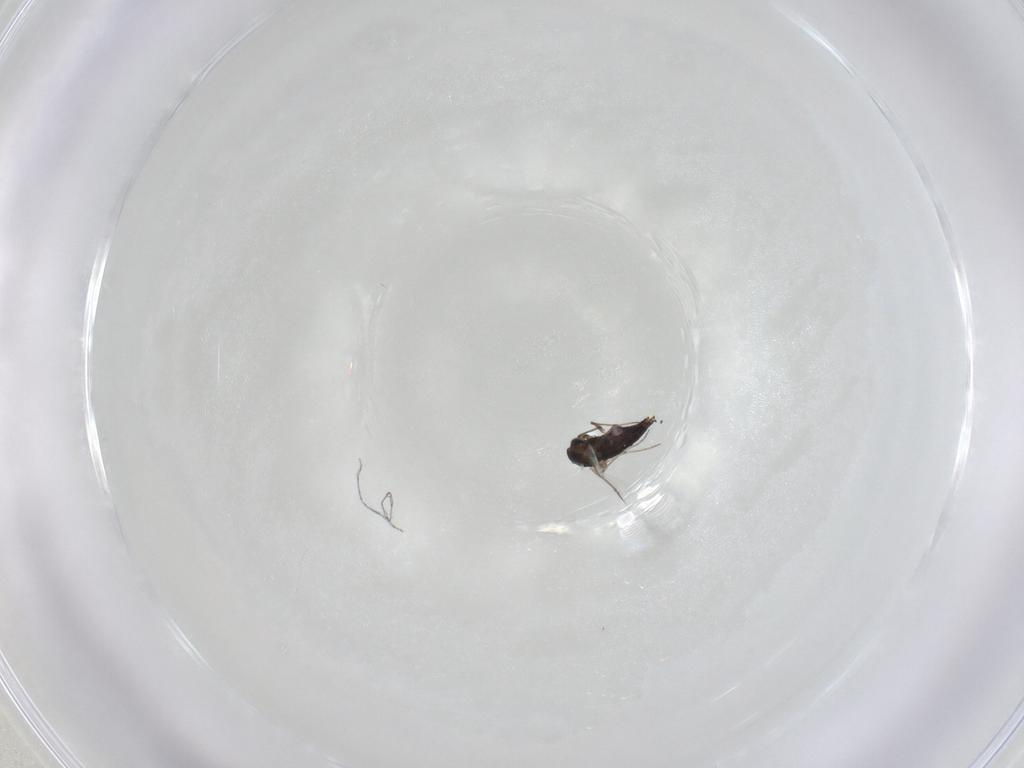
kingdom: Animalia
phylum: Arthropoda
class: Insecta
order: Diptera
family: Chironomidae
